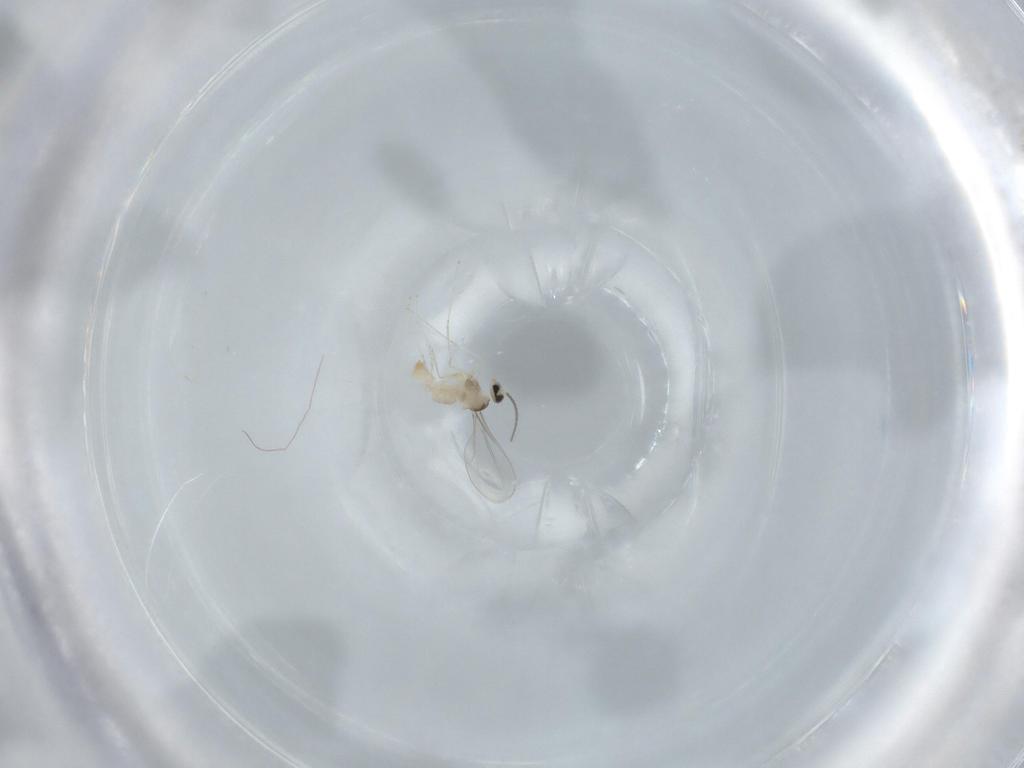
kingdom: Animalia
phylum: Arthropoda
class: Insecta
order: Diptera
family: Cecidomyiidae
